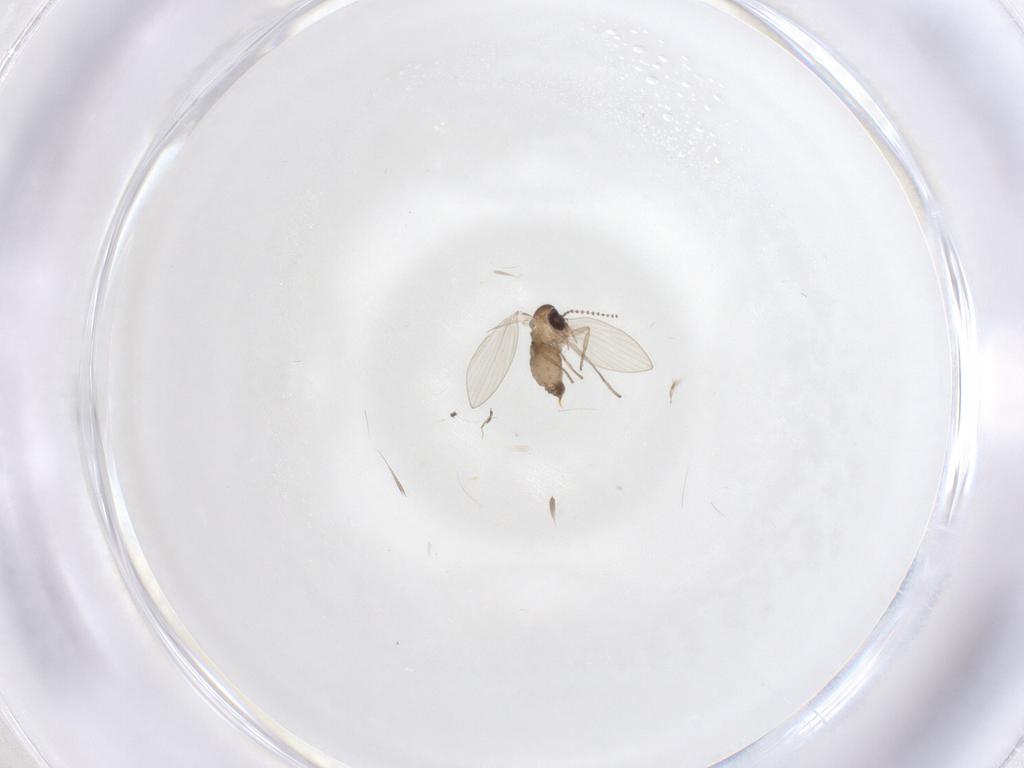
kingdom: Animalia
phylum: Arthropoda
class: Insecta
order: Diptera
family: Psychodidae
